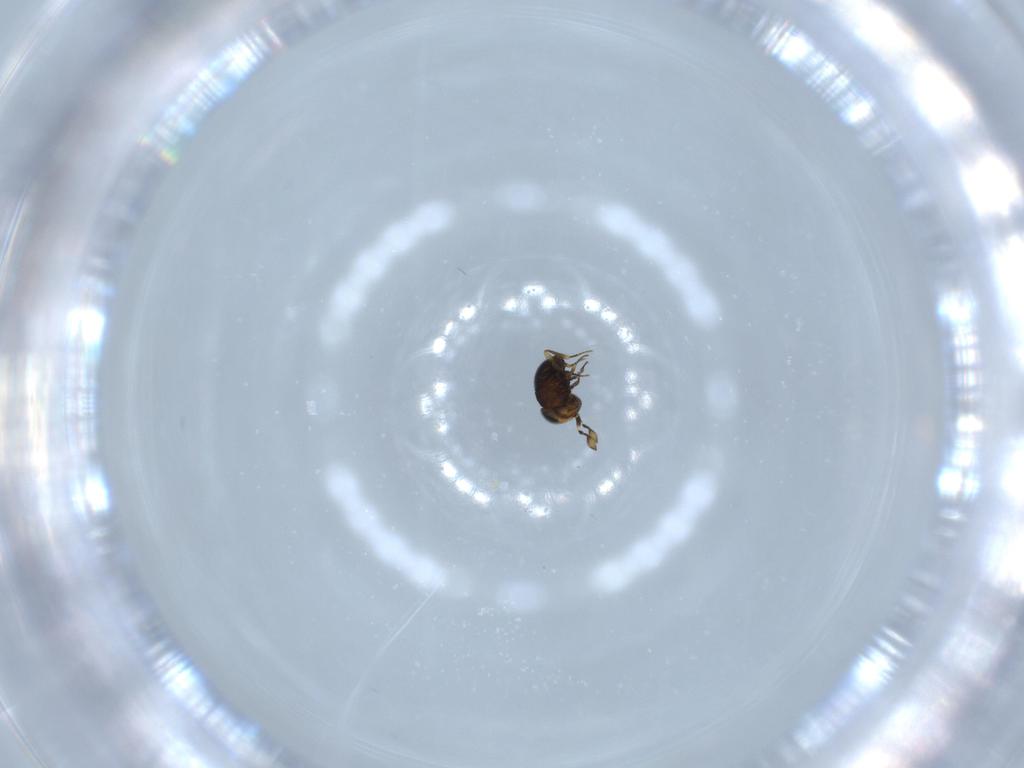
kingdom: Animalia
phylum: Arthropoda
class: Insecta
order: Hymenoptera
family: Scelionidae
